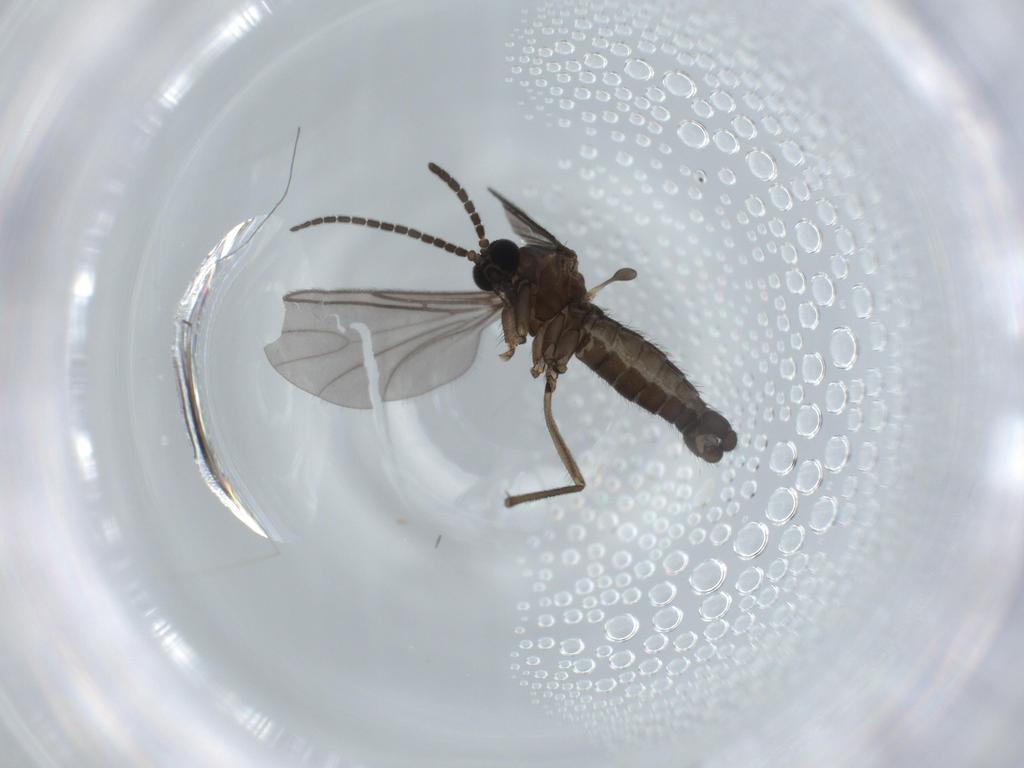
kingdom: Animalia
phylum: Arthropoda
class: Insecta
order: Diptera
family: Sciaridae
